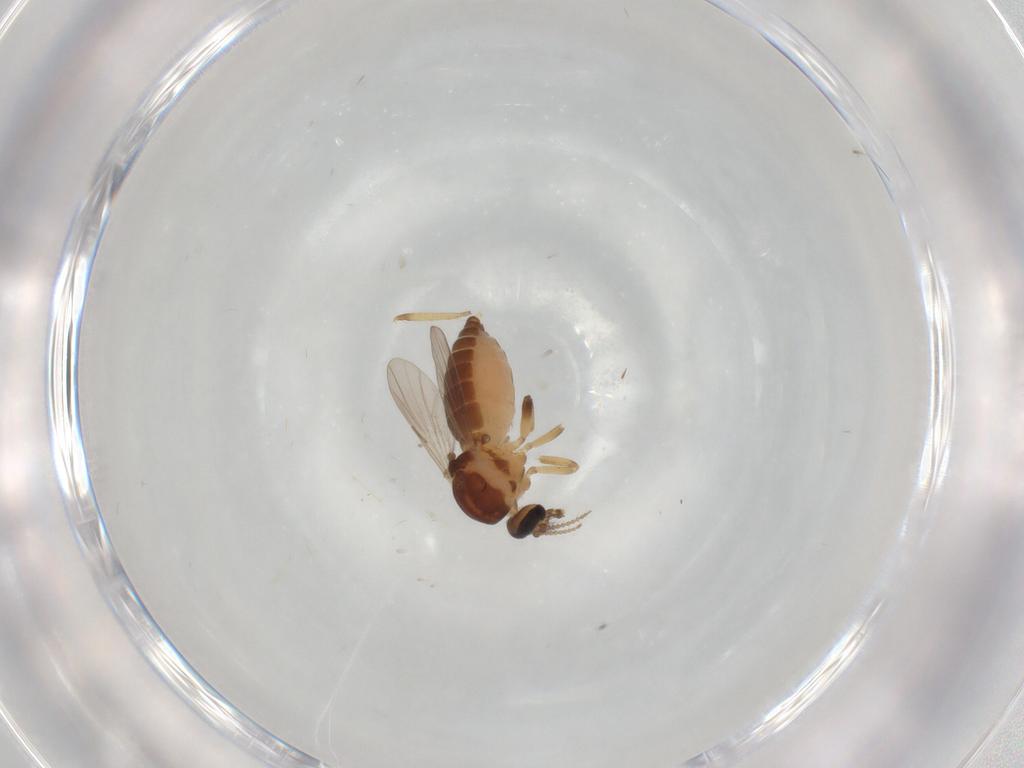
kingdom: Animalia
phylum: Arthropoda
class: Insecta
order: Diptera
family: Ceratopogonidae
